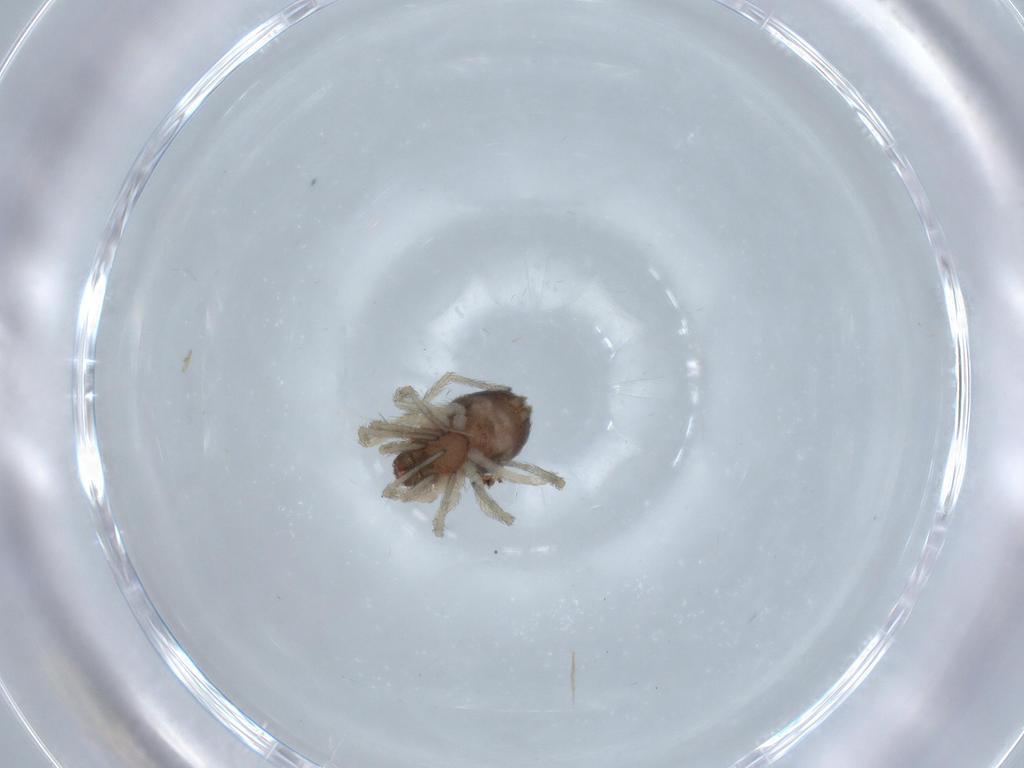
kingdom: Animalia
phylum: Arthropoda
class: Arachnida
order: Araneae
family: Dictynidae
